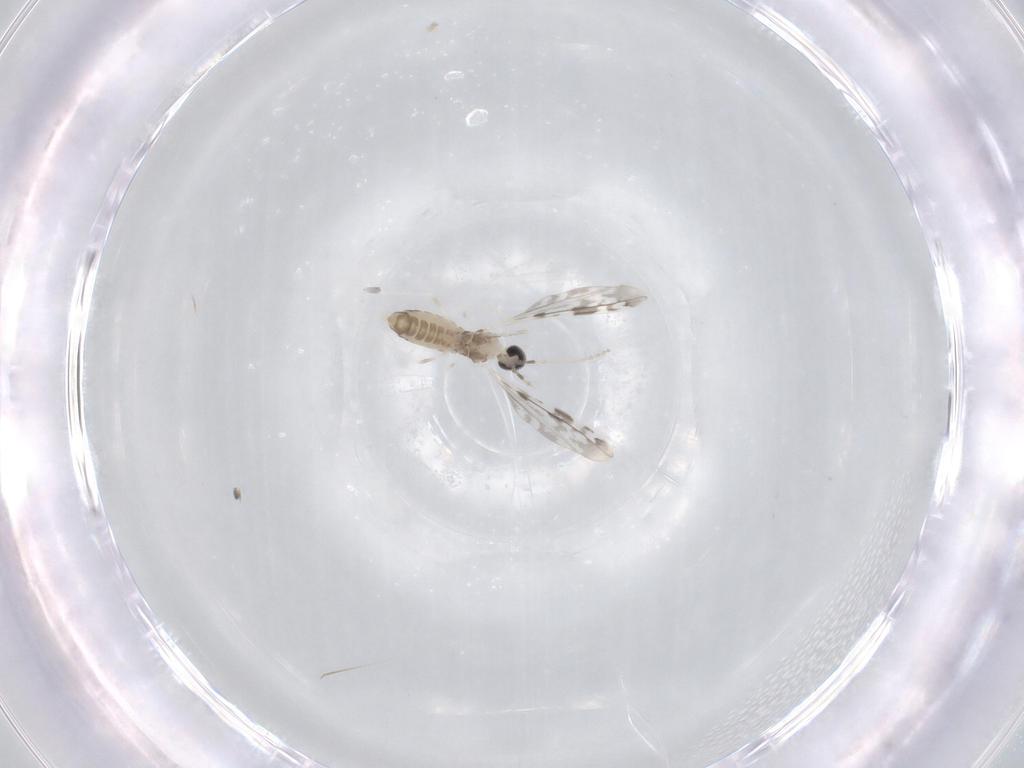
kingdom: Animalia
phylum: Arthropoda
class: Insecta
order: Diptera
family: Cecidomyiidae
